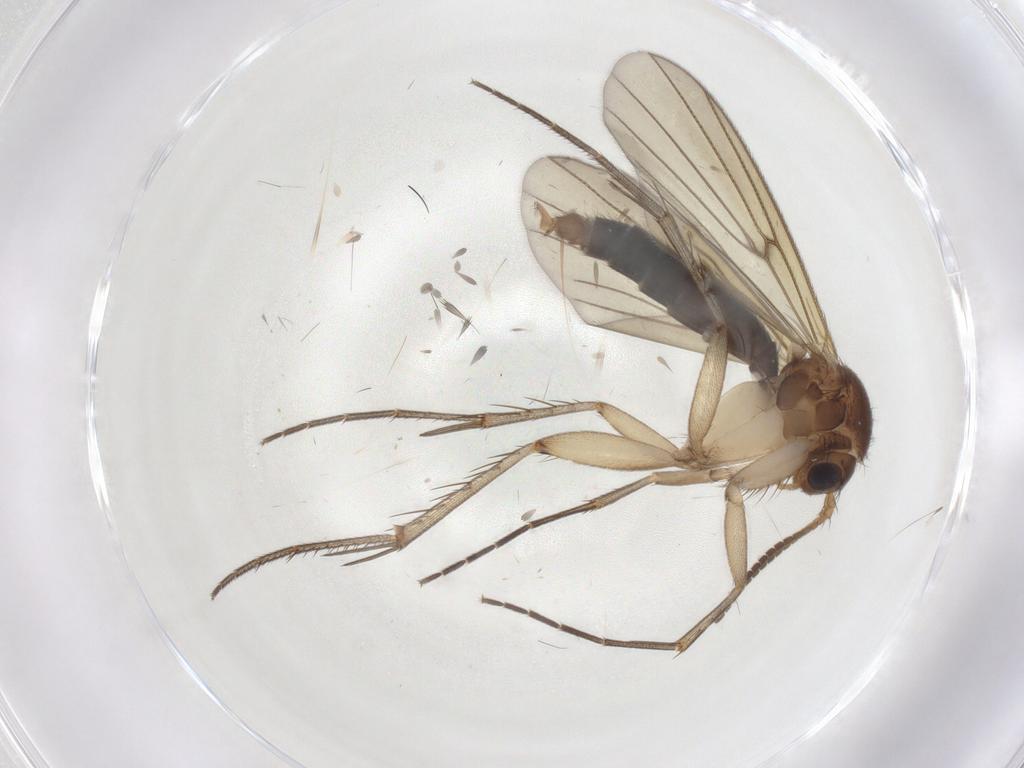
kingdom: Animalia
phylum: Arthropoda
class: Insecta
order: Diptera
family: Mycetophilidae
